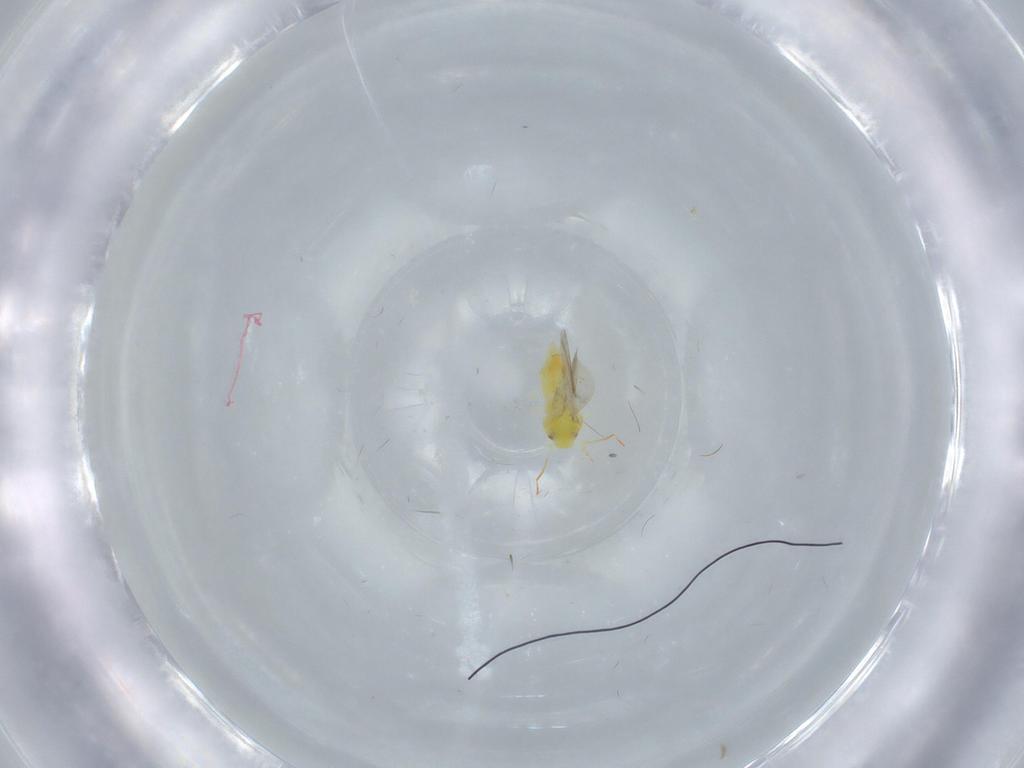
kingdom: Animalia
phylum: Arthropoda
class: Insecta
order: Hemiptera
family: Aleyrodidae
